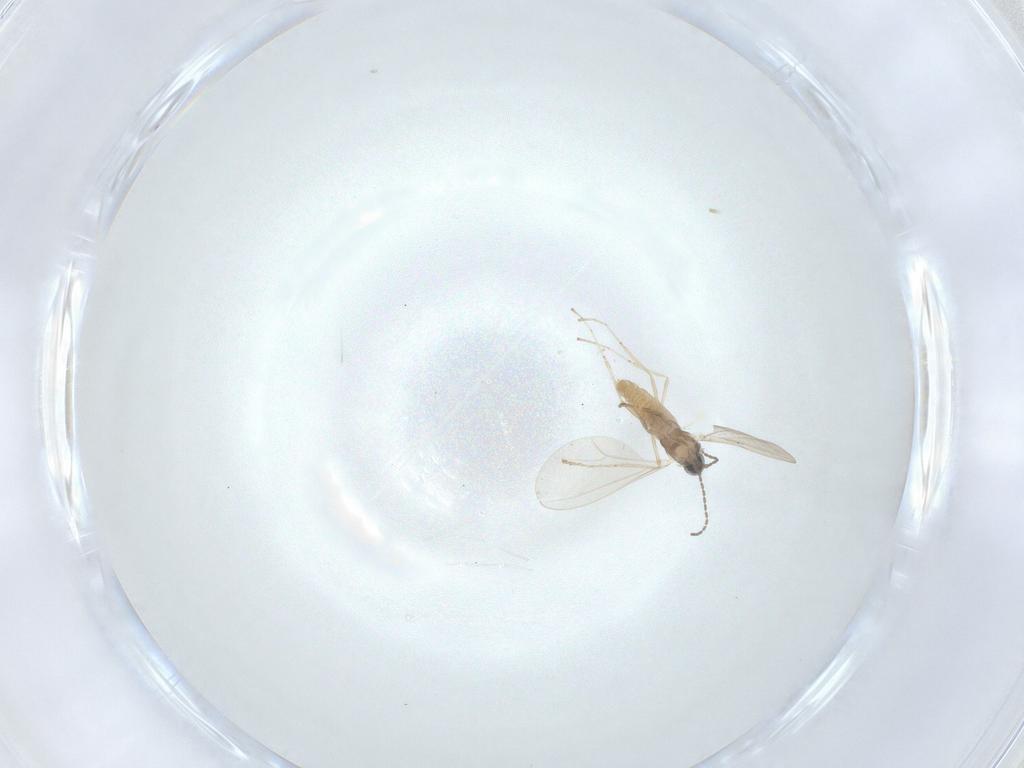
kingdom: Animalia
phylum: Arthropoda
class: Insecta
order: Diptera
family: Cecidomyiidae
